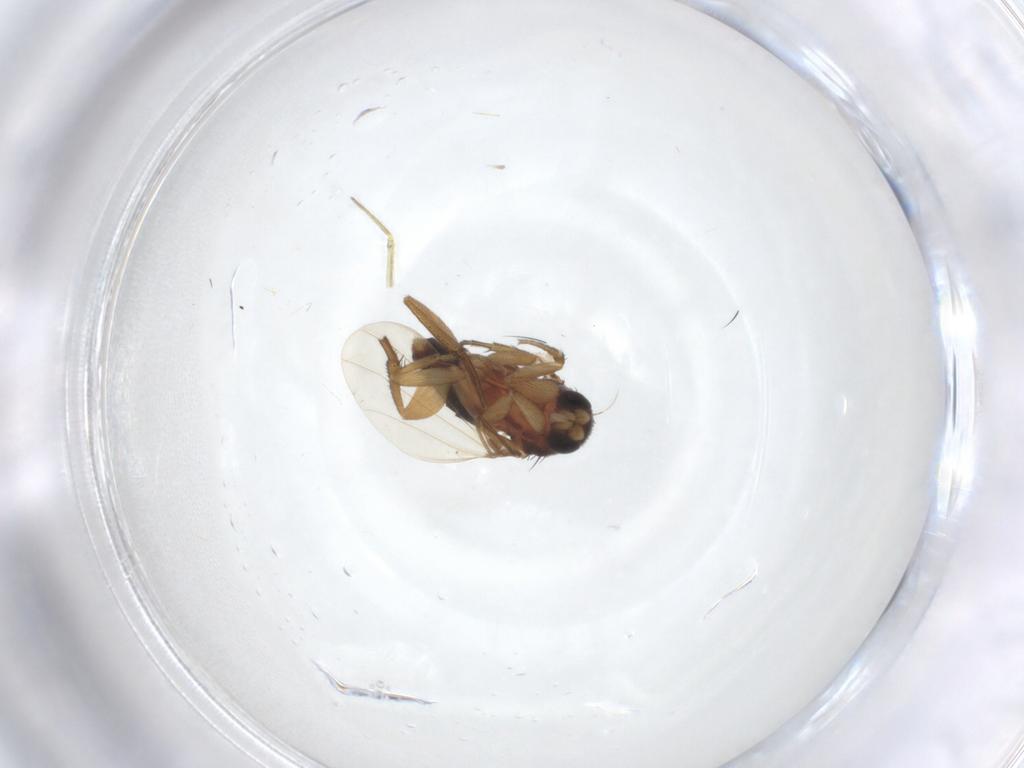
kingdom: Animalia
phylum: Arthropoda
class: Insecta
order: Diptera
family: Phoridae
